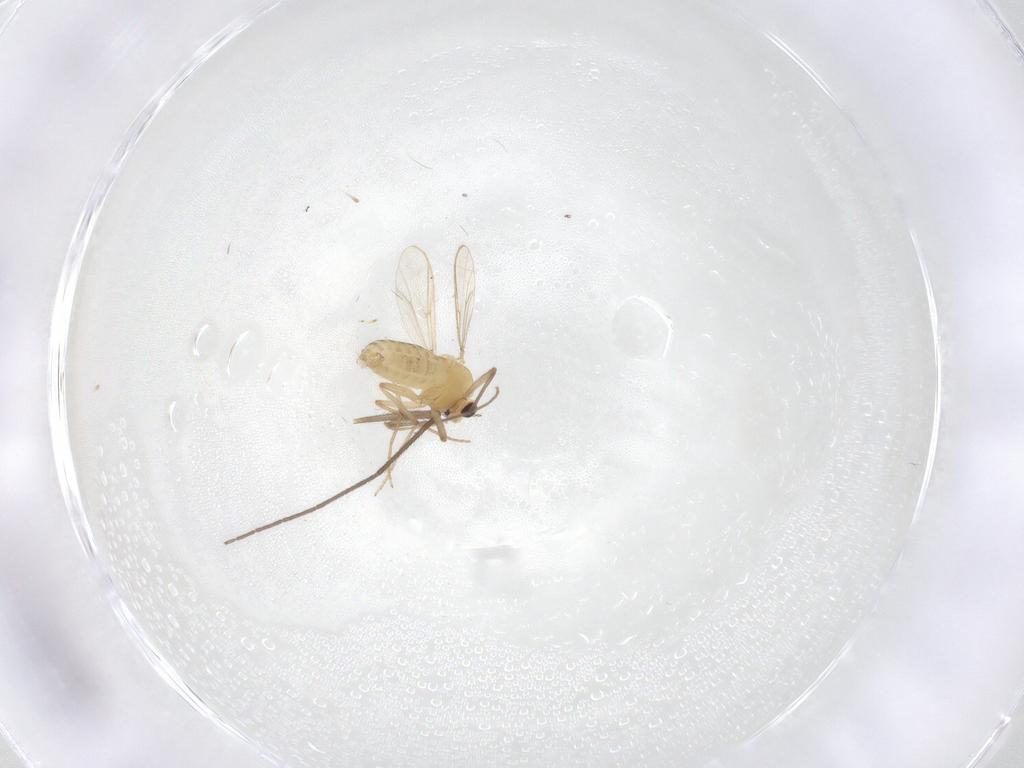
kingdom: Animalia
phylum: Arthropoda
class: Insecta
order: Diptera
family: Chironomidae
